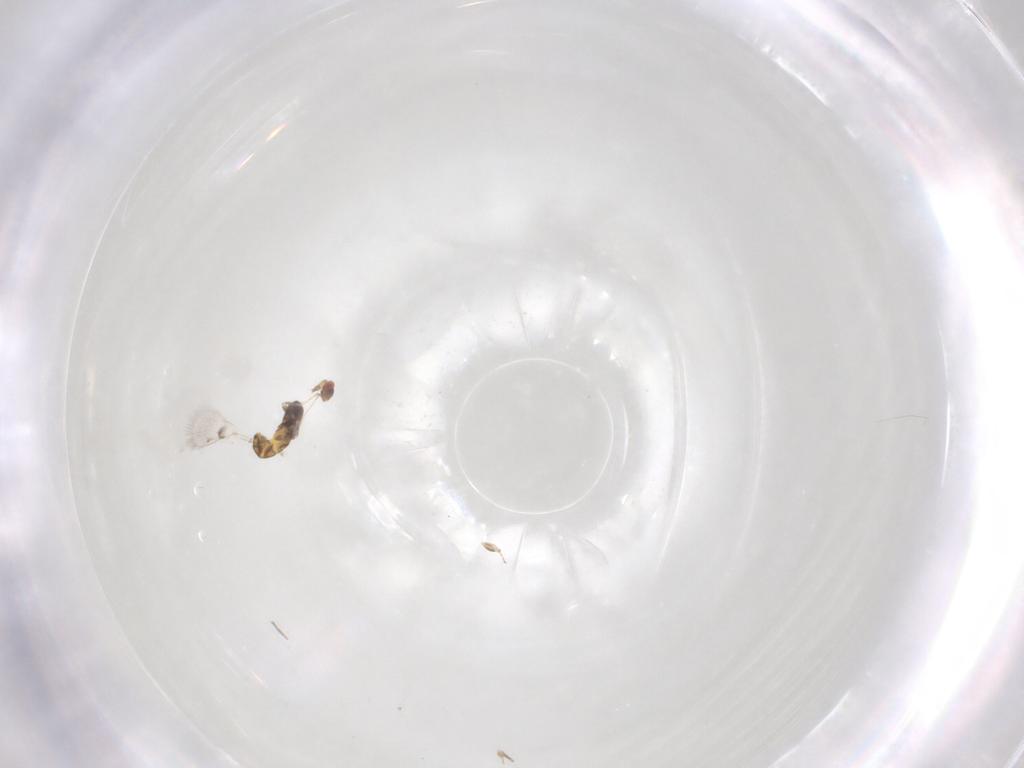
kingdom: Animalia
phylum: Arthropoda
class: Insecta
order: Hymenoptera
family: Trichogrammatidae
